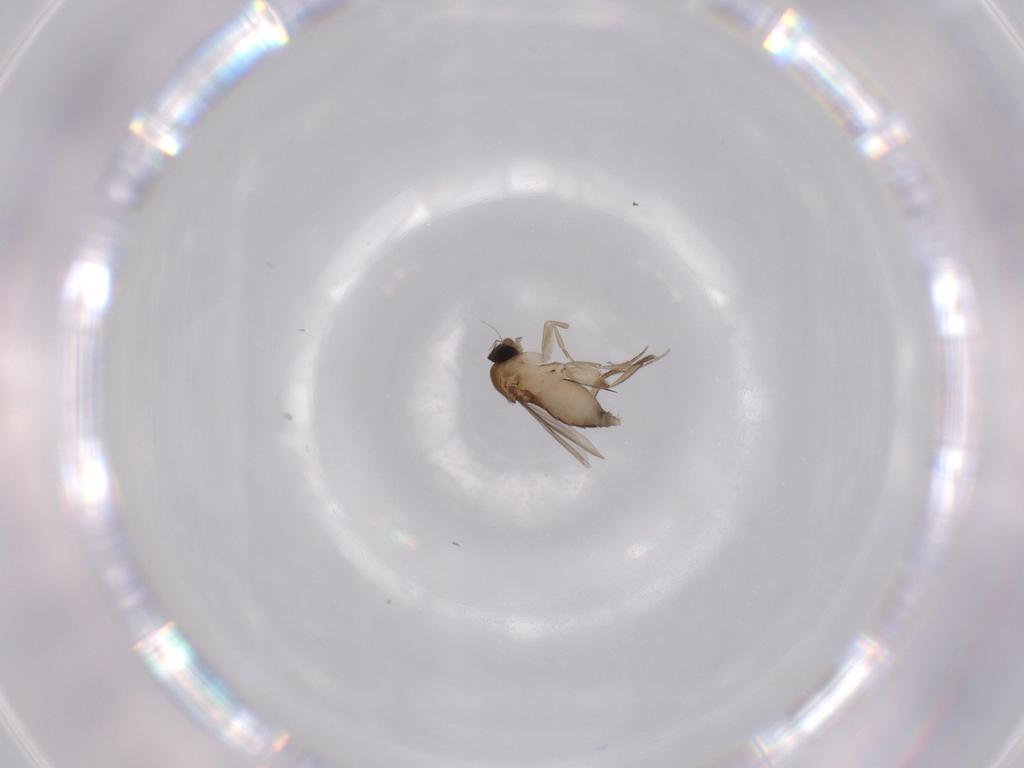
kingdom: Animalia
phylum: Arthropoda
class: Insecta
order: Diptera
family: Phoridae
